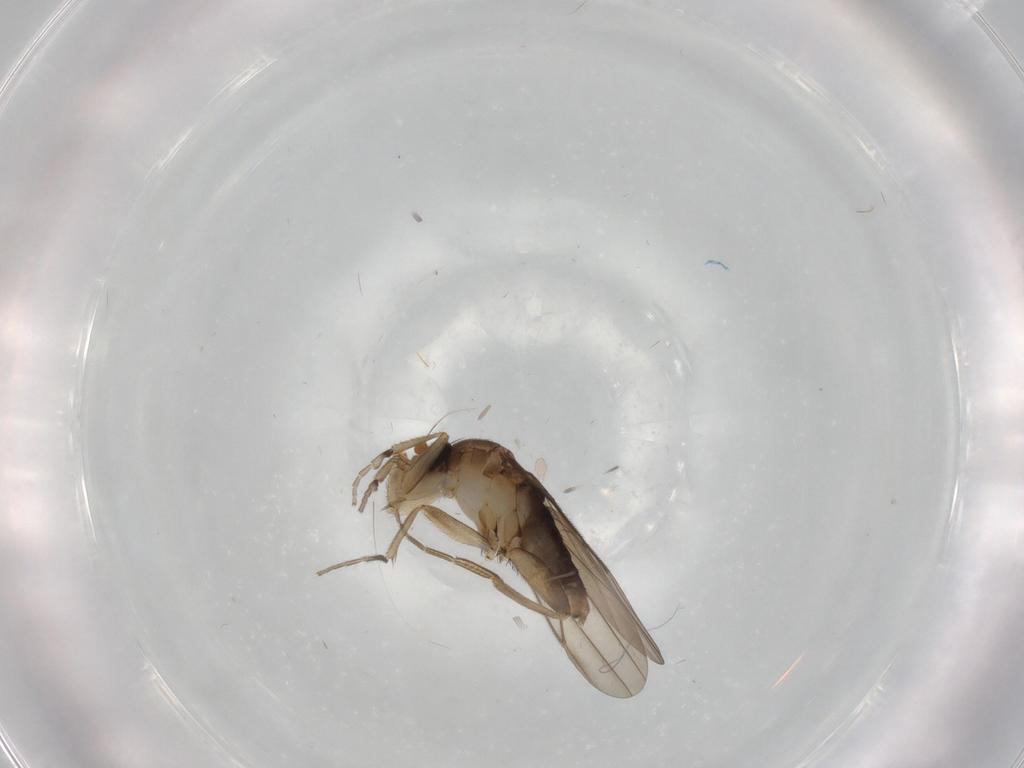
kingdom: Animalia
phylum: Arthropoda
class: Insecta
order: Diptera
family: Phoridae
